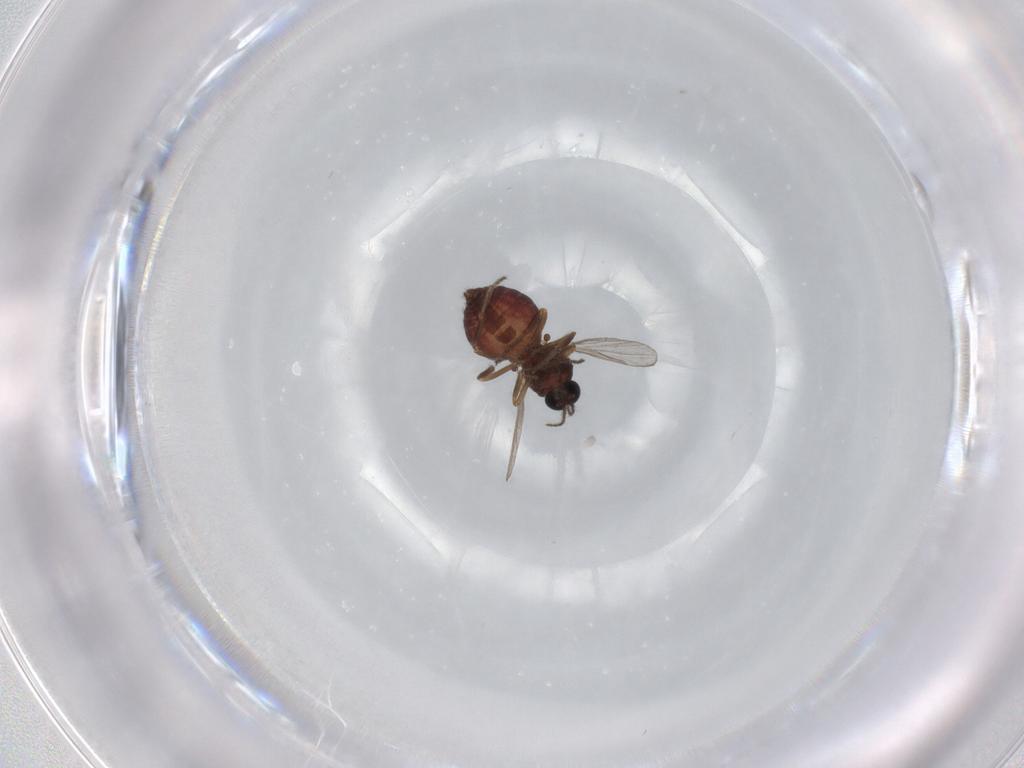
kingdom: Animalia
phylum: Arthropoda
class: Insecta
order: Diptera
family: Ceratopogonidae
